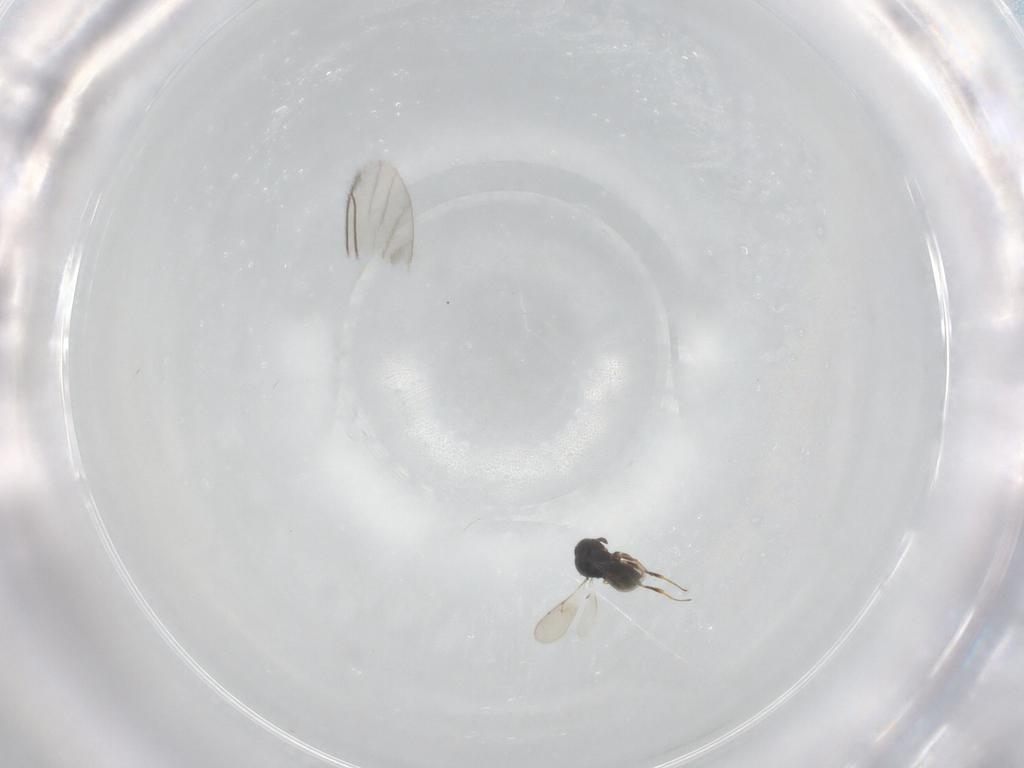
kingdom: Animalia
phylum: Arthropoda
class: Insecta
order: Hymenoptera
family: Scelionidae
